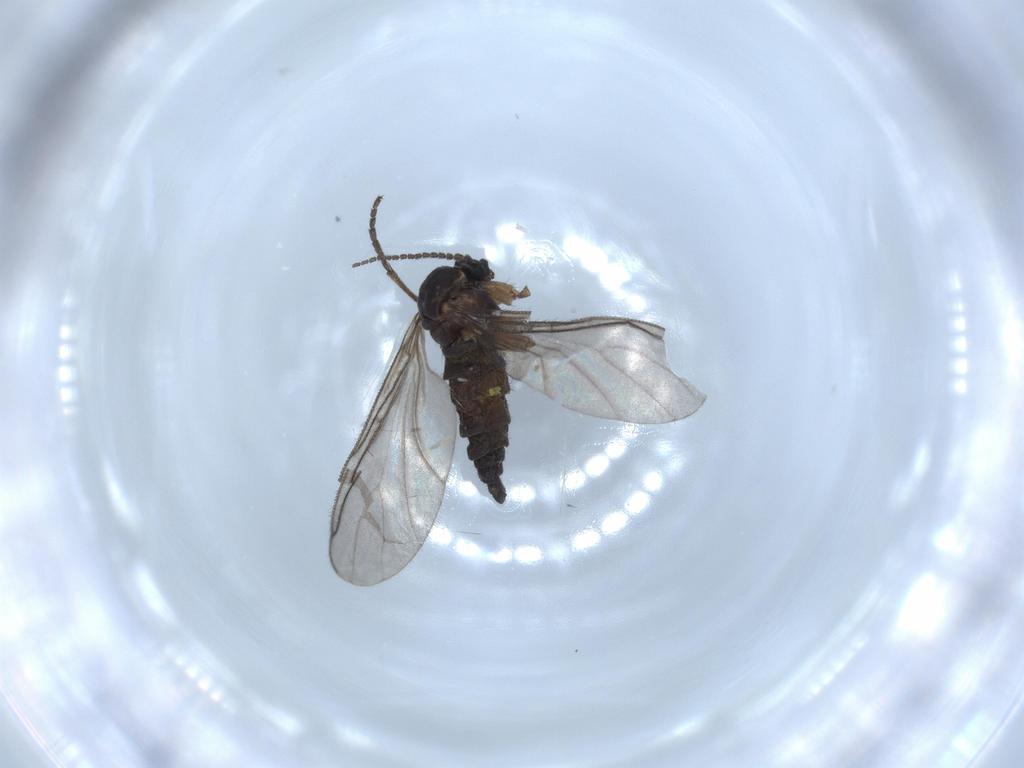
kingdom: Animalia
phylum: Arthropoda
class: Insecta
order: Diptera
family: Sciaridae
